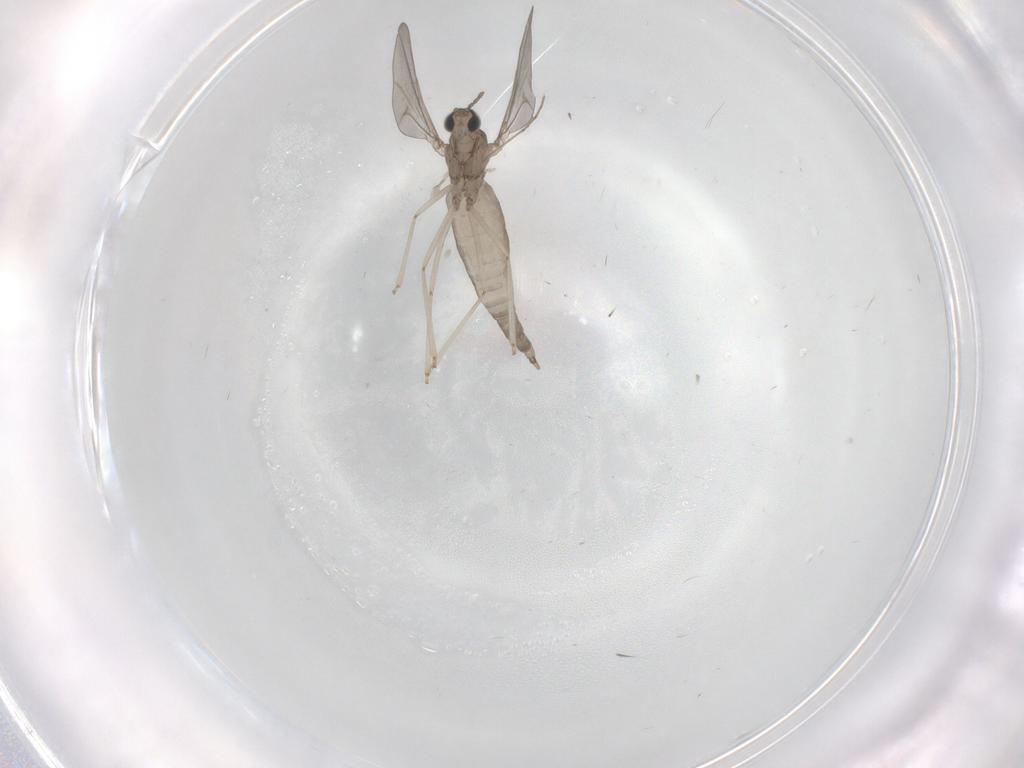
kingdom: Animalia
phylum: Arthropoda
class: Insecta
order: Diptera
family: Cecidomyiidae
